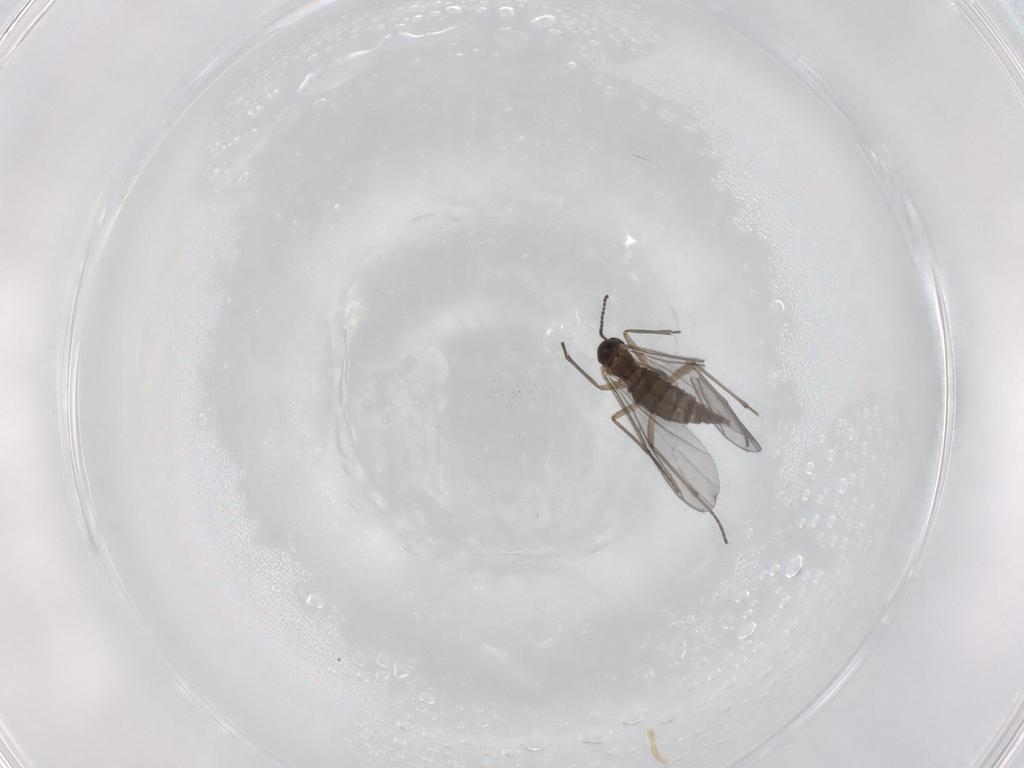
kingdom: Animalia
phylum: Arthropoda
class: Insecta
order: Diptera
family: Sciaridae
